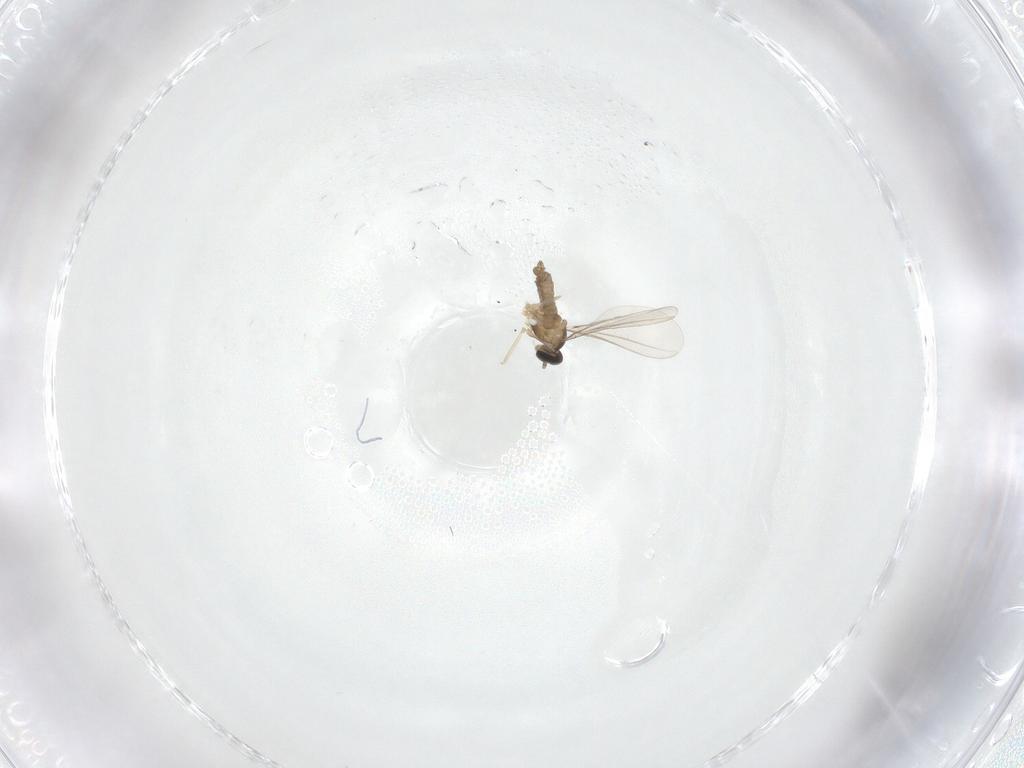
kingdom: Animalia
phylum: Arthropoda
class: Insecta
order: Diptera
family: Cecidomyiidae
